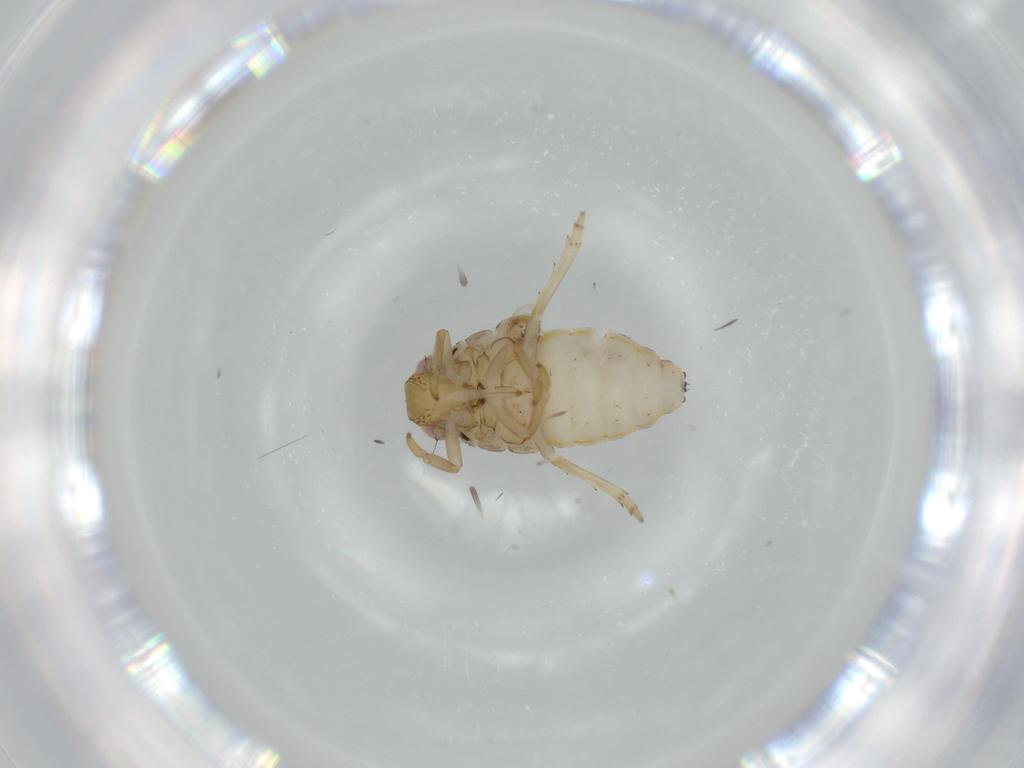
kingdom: Animalia
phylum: Arthropoda
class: Insecta
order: Hemiptera
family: Issidae
